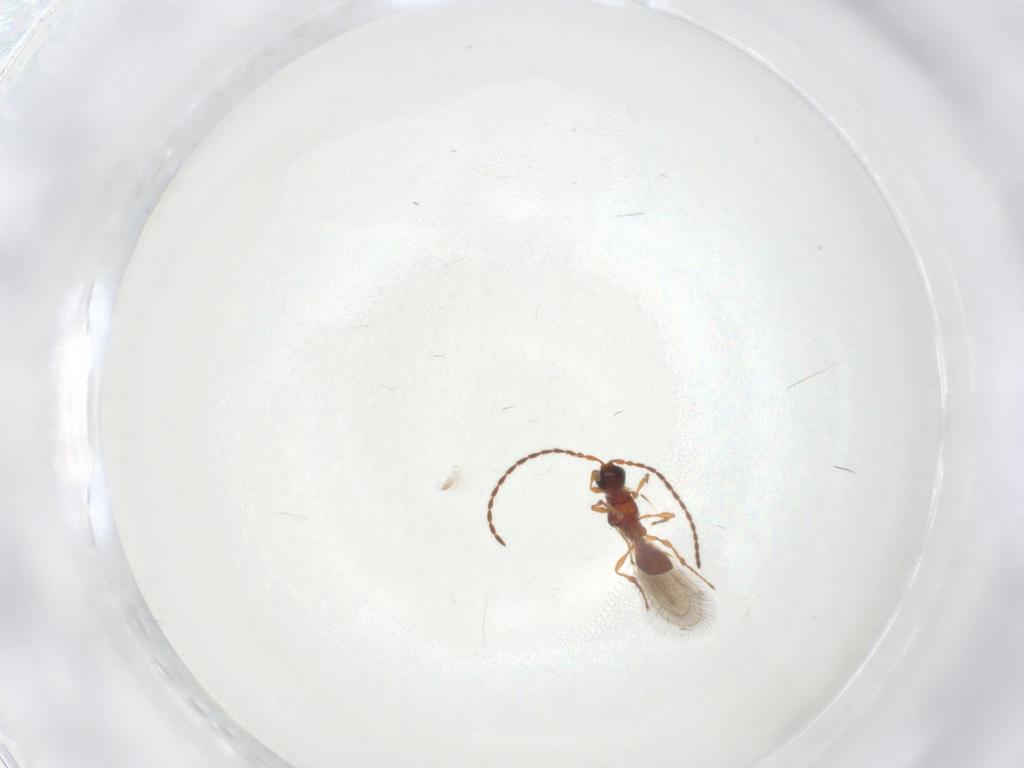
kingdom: Animalia
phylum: Arthropoda
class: Insecta
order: Hymenoptera
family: Diapriidae
